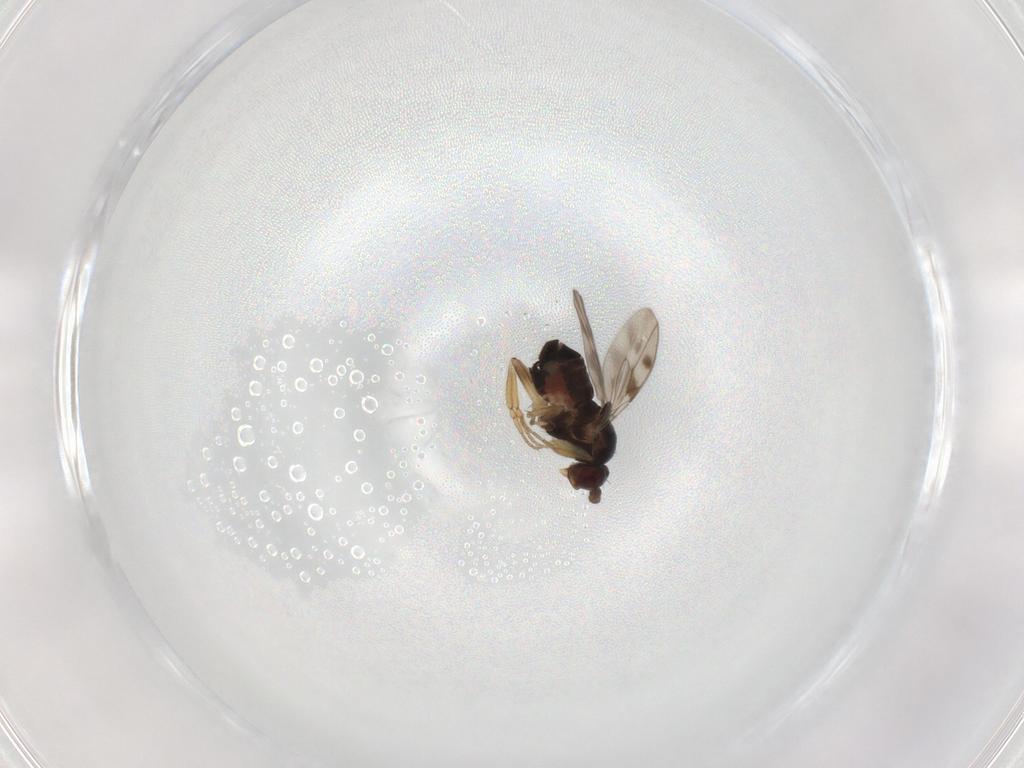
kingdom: Animalia
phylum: Arthropoda
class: Insecta
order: Diptera
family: Sphaeroceridae
